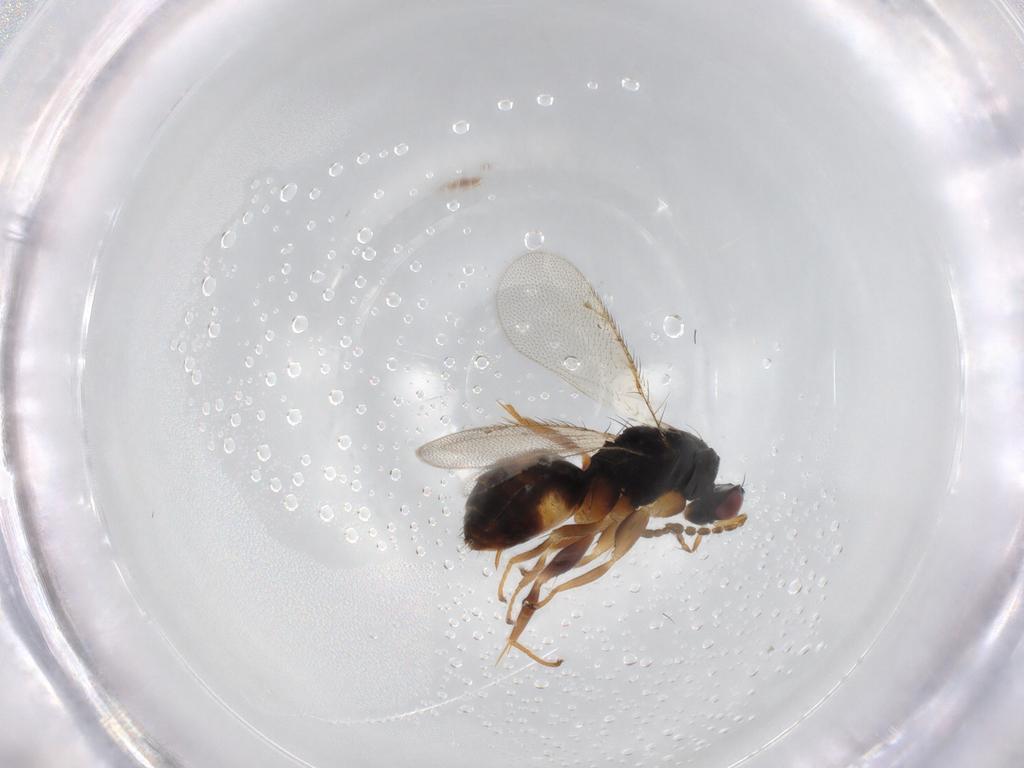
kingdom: Animalia
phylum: Arthropoda
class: Insecta
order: Hymenoptera
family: Eulophidae
